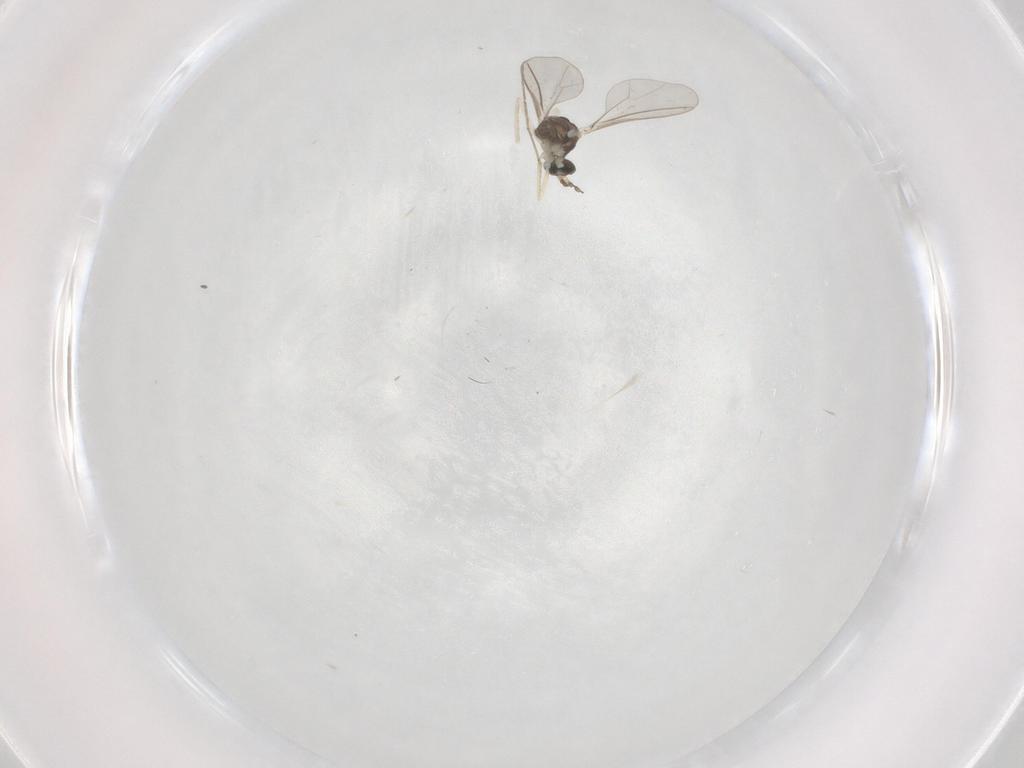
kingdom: Animalia
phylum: Arthropoda
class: Insecta
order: Diptera
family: Cecidomyiidae
